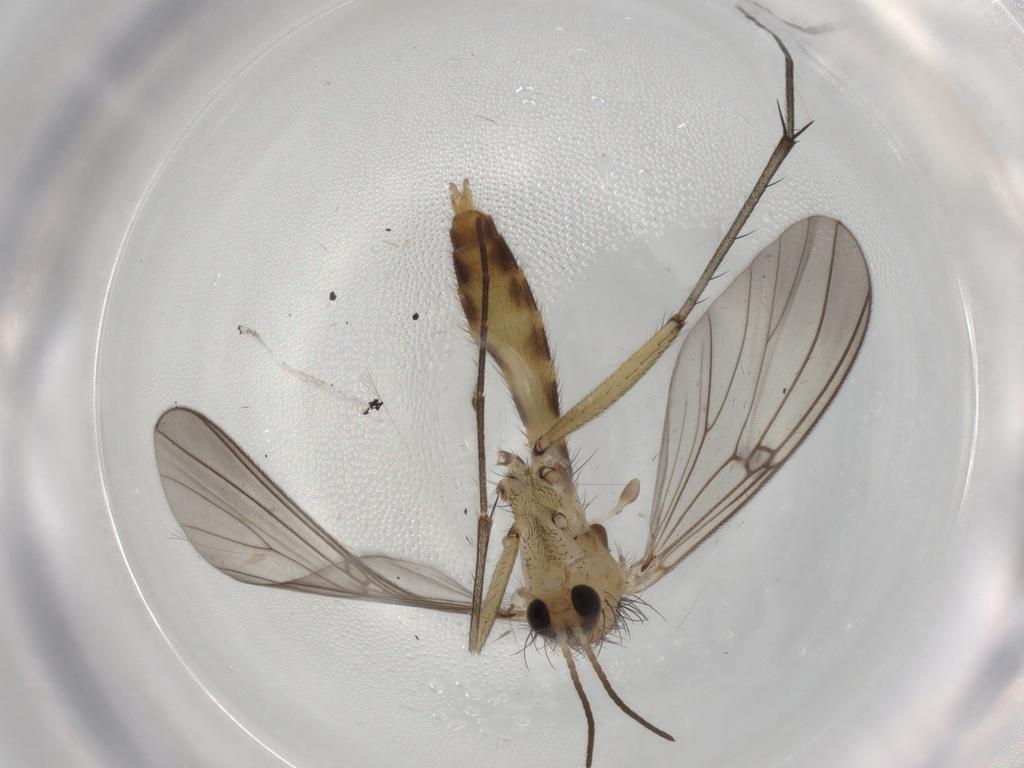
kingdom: Animalia
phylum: Arthropoda
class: Insecta
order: Diptera
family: Mycetophilidae
